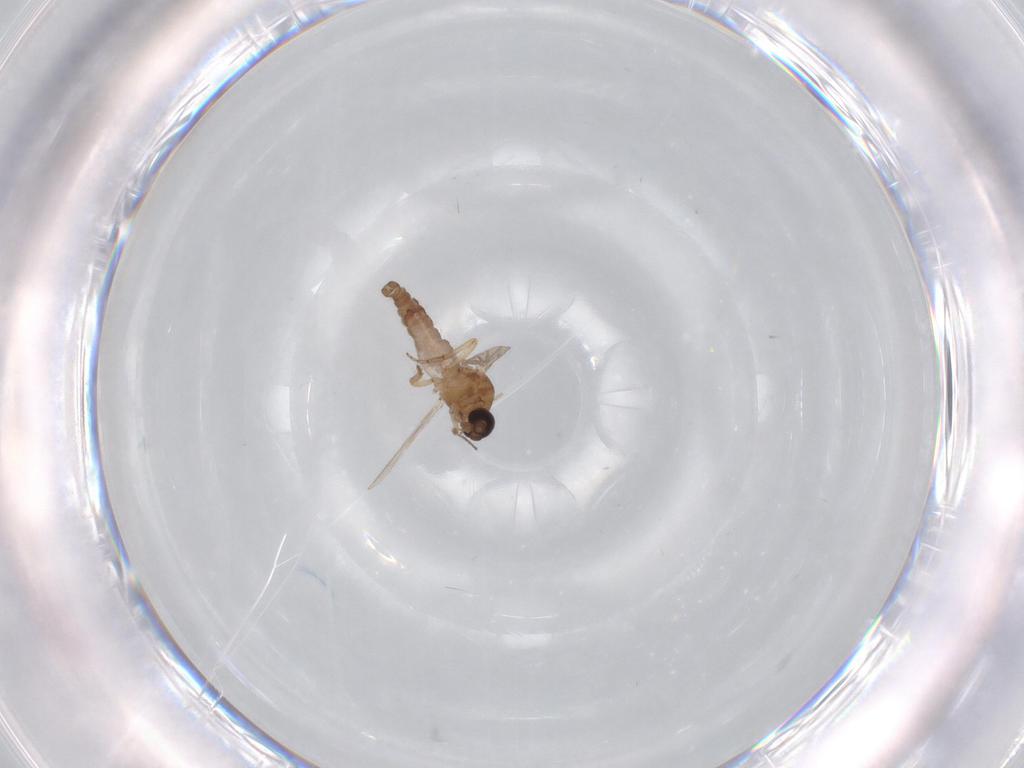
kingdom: Animalia
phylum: Arthropoda
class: Insecta
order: Diptera
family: Ceratopogonidae
